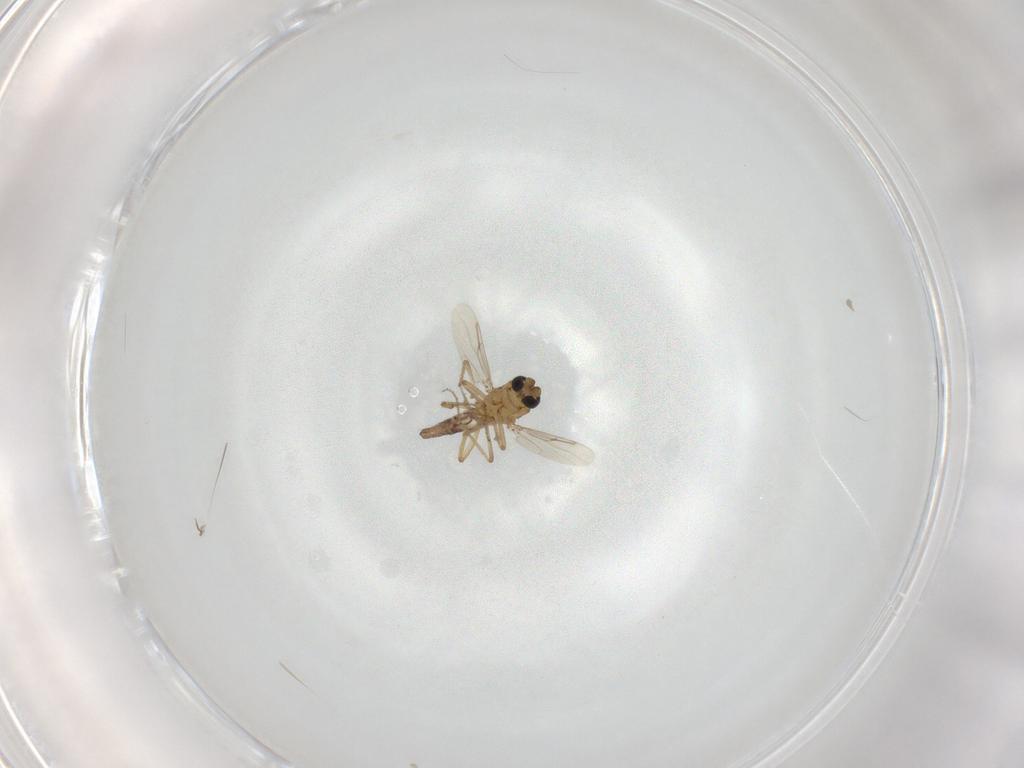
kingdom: Animalia
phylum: Arthropoda
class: Insecta
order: Diptera
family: Ceratopogonidae
